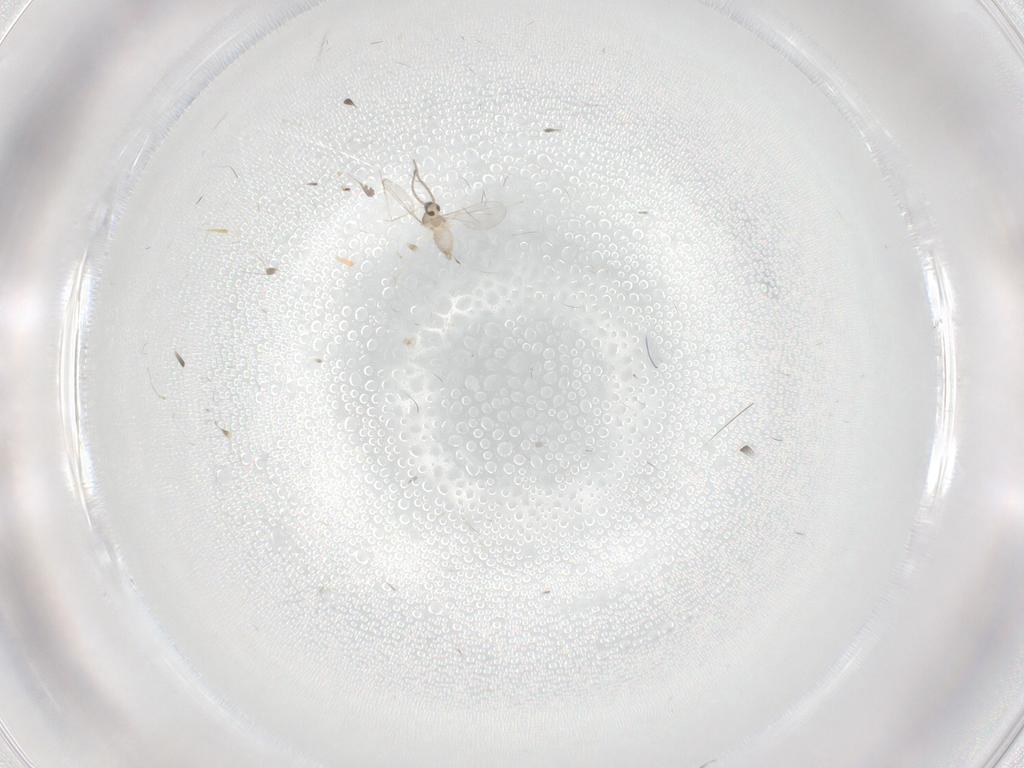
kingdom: Animalia
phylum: Arthropoda
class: Insecta
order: Diptera
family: Cecidomyiidae
